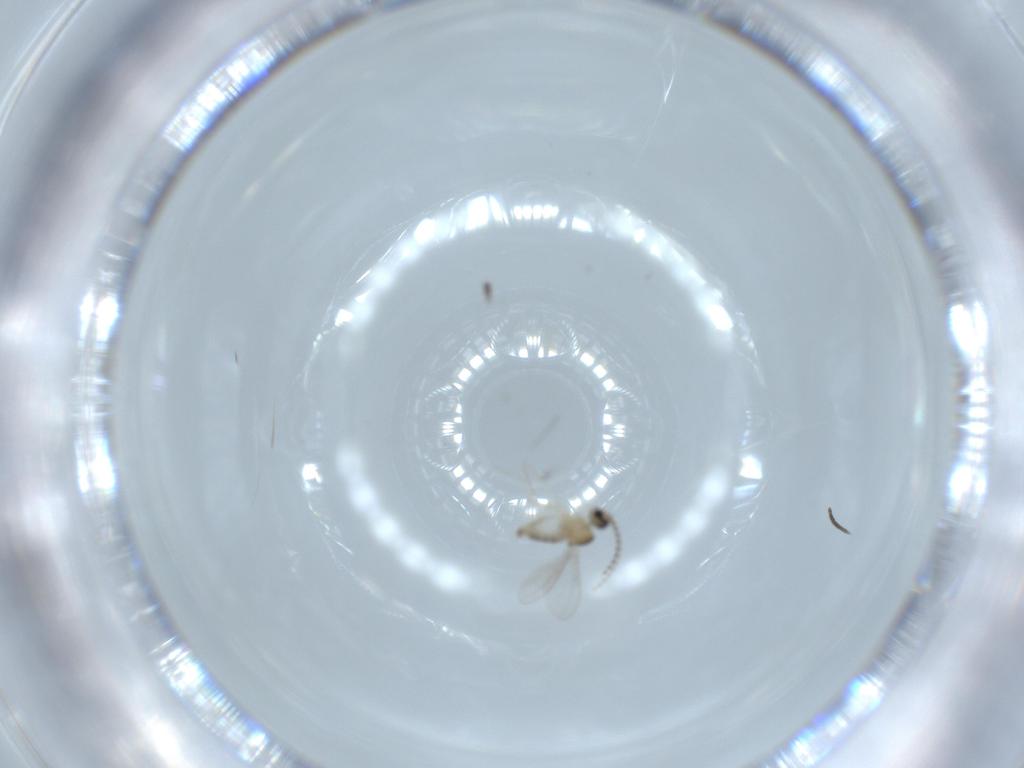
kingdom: Animalia
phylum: Arthropoda
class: Insecta
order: Diptera
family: Cecidomyiidae
